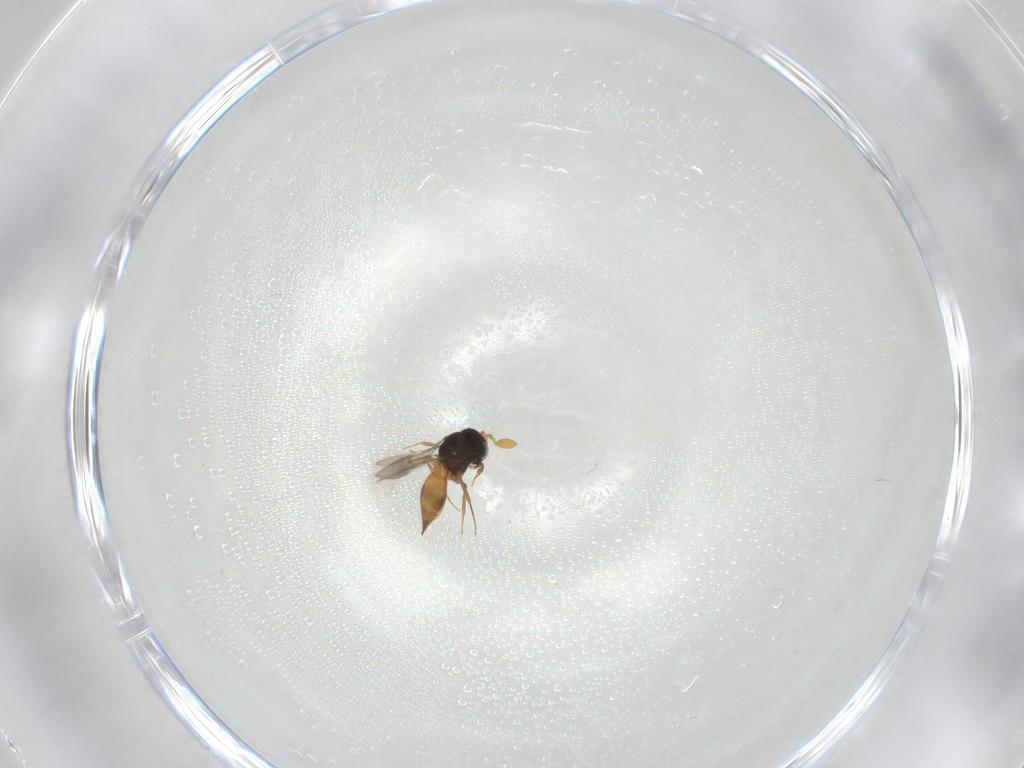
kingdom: Animalia
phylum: Arthropoda
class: Insecta
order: Hymenoptera
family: Scelionidae
